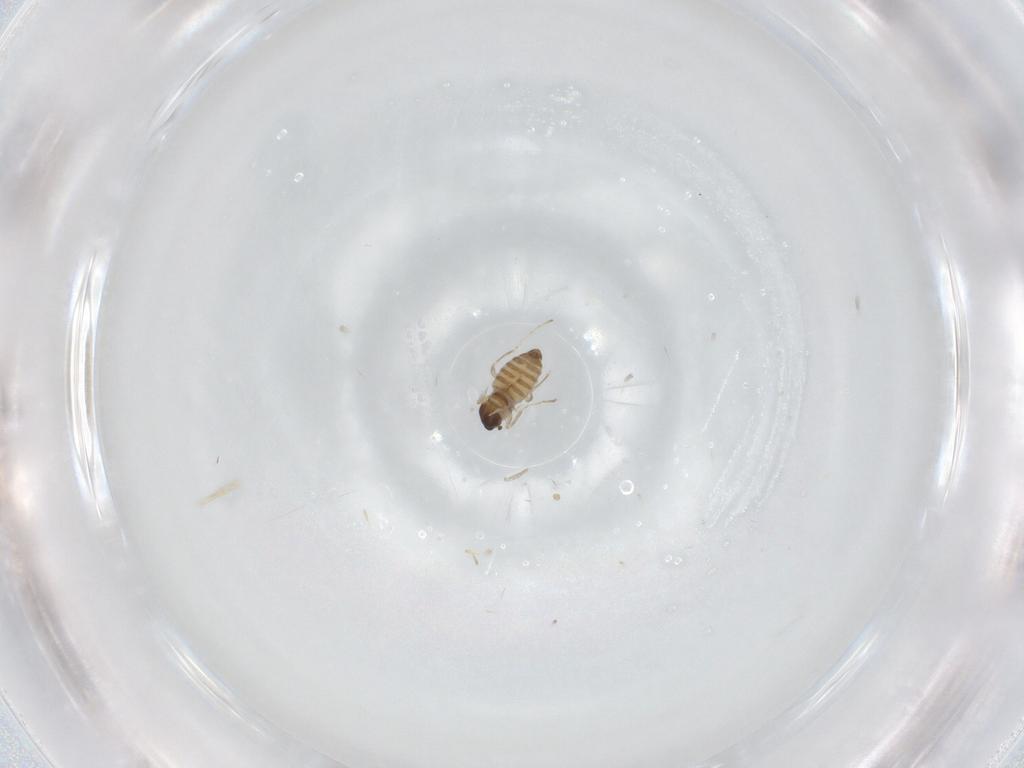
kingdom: Animalia
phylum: Arthropoda
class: Insecta
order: Diptera
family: Cecidomyiidae
